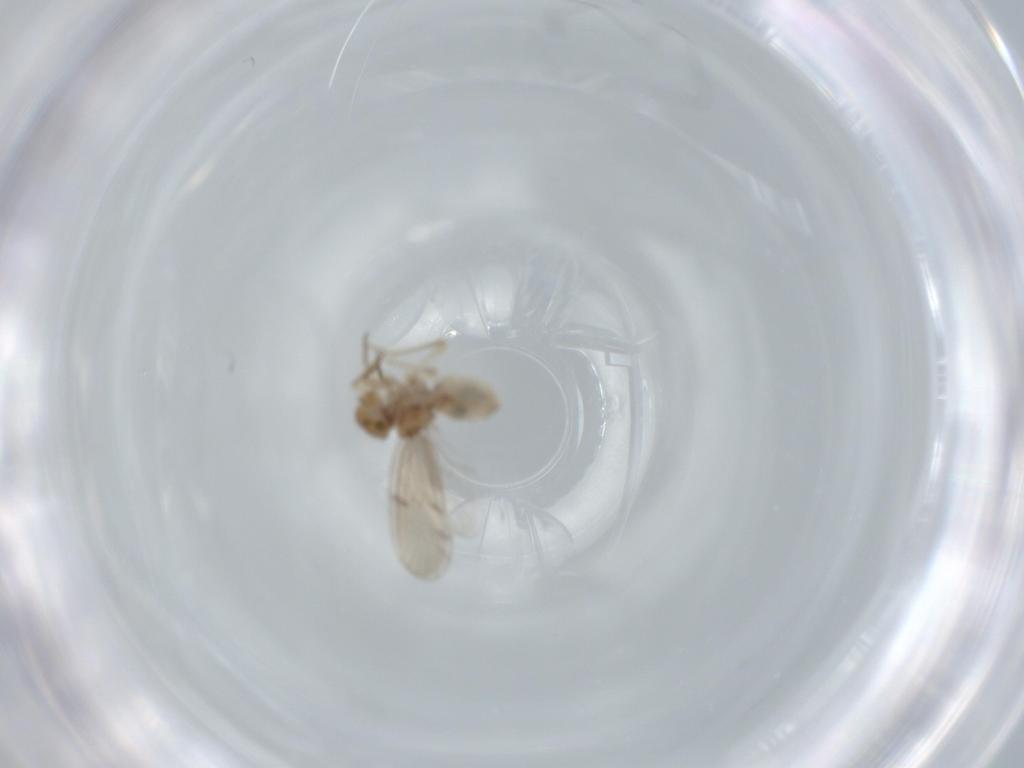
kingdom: Animalia
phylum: Arthropoda
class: Insecta
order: Psocodea
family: Ectopsocidae
